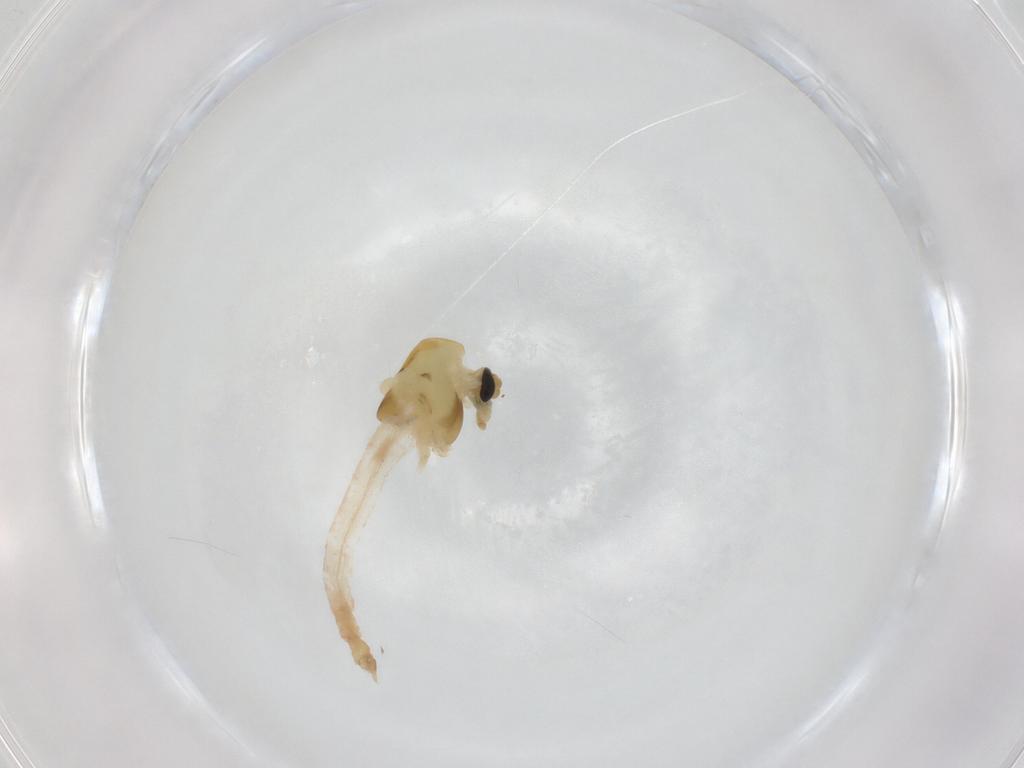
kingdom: Animalia
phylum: Arthropoda
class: Insecta
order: Diptera
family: Chironomidae
